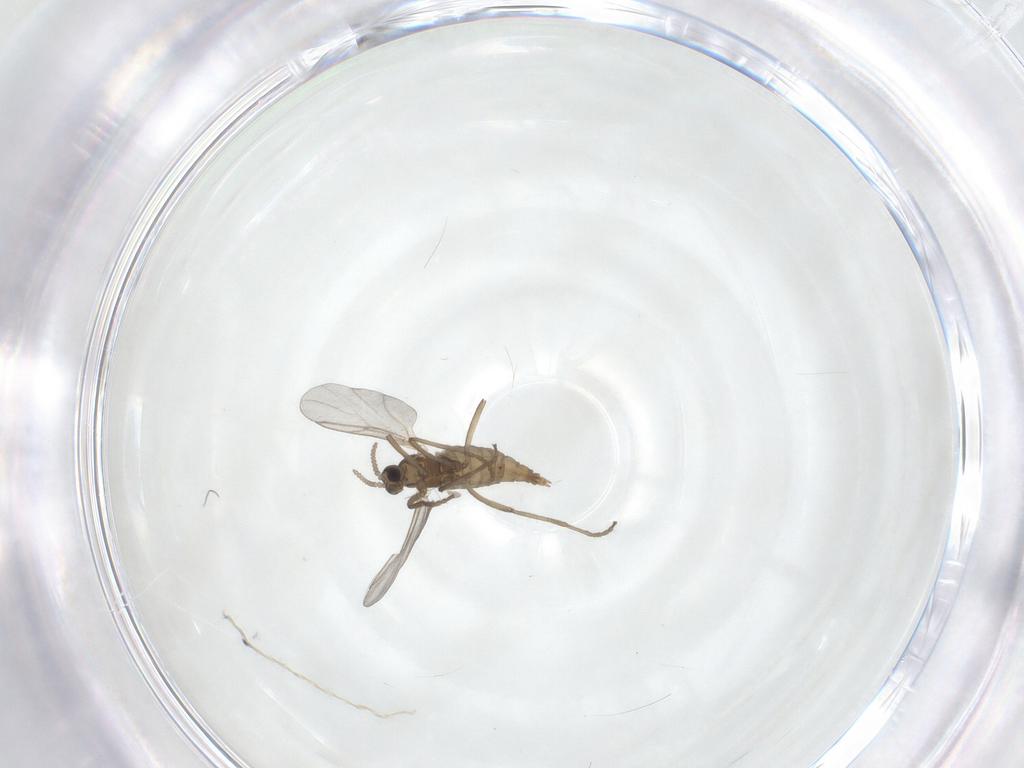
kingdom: Animalia
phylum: Arthropoda
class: Insecta
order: Diptera
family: Cecidomyiidae
